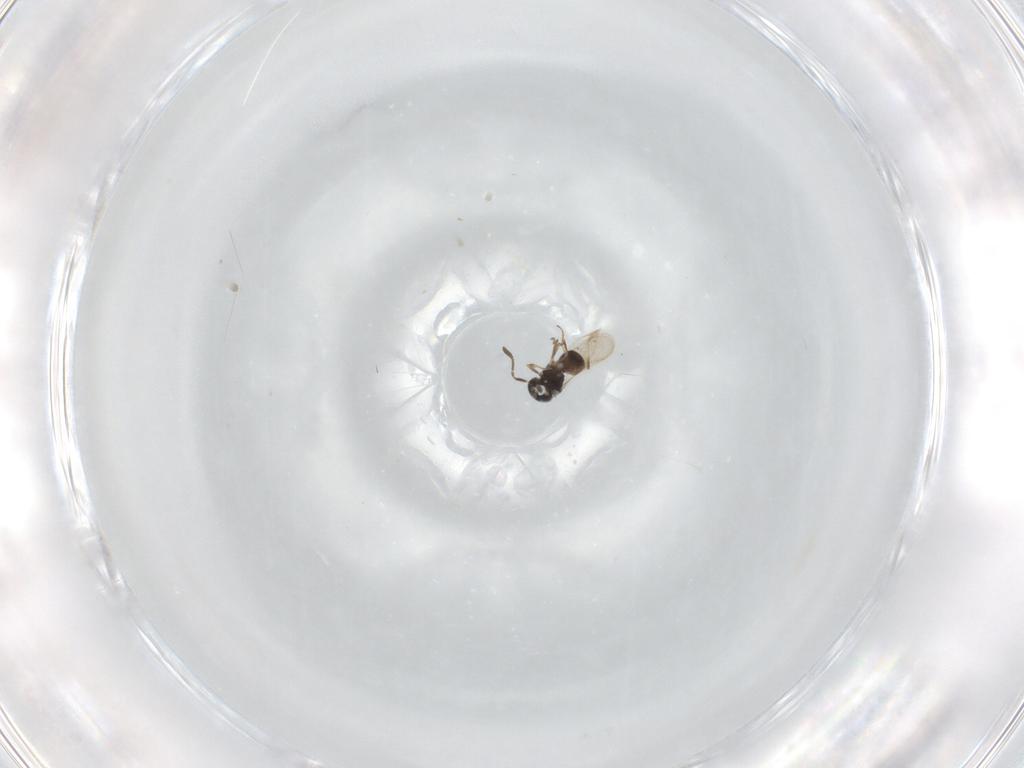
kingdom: Animalia
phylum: Arthropoda
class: Insecta
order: Hymenoptera
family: Scelionidae
